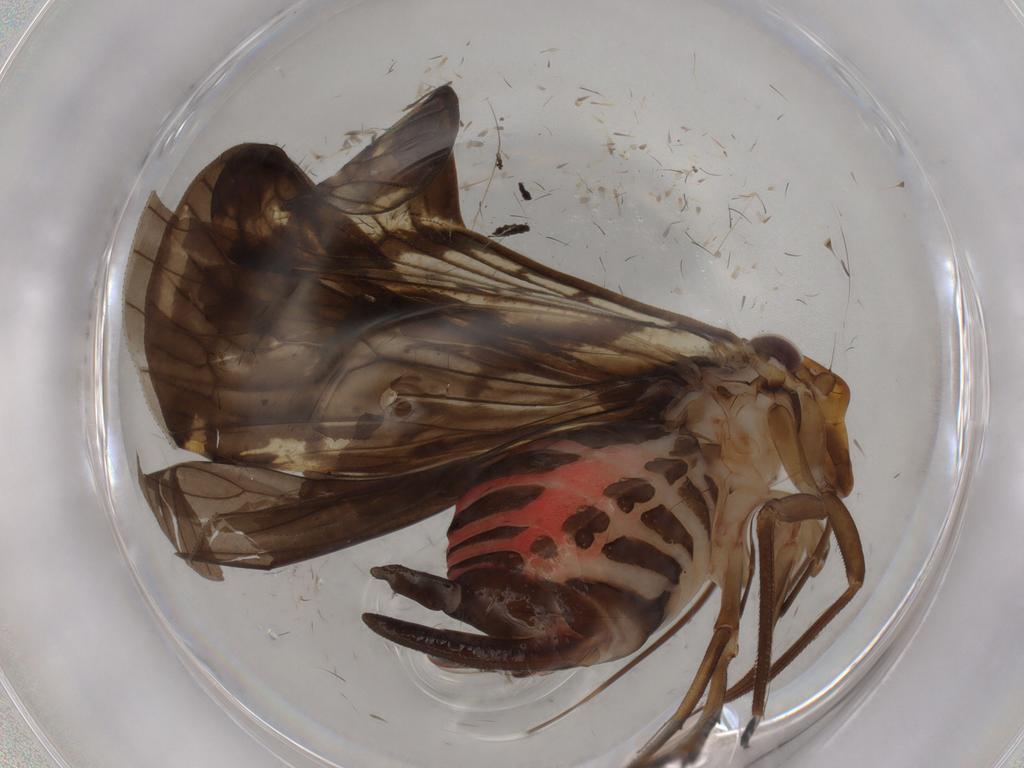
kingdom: Animalia
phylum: Arthropoda
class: Insecta
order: Hemiptera
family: Cixiidae
